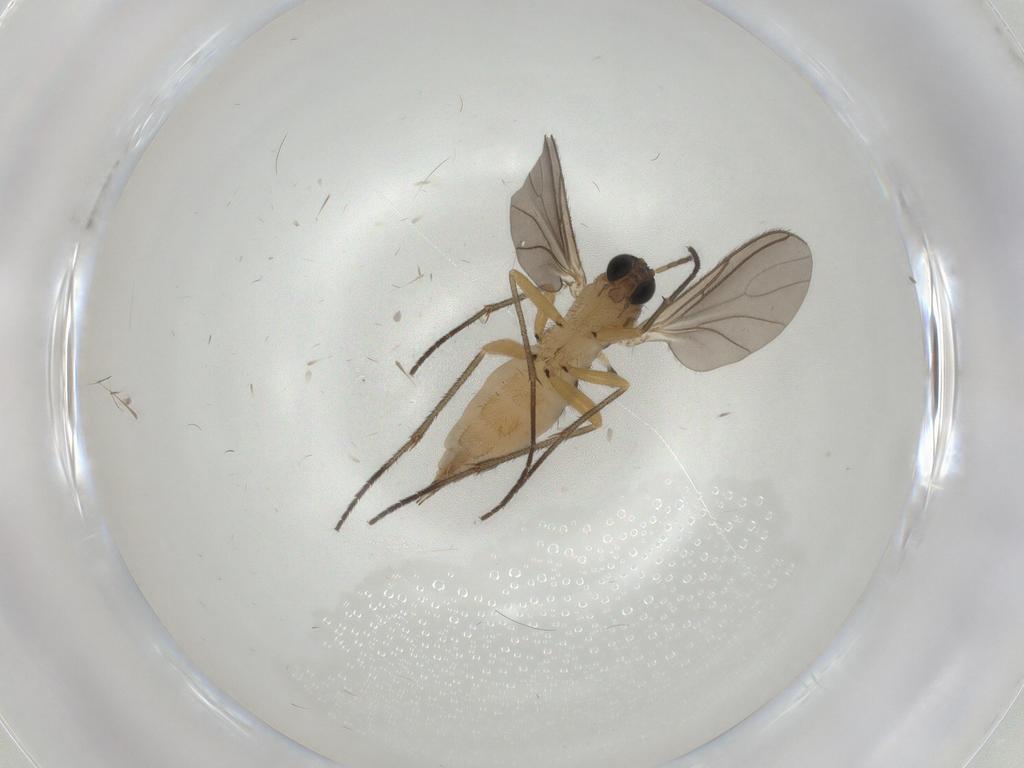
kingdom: Animalia
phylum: Arthropoda
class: Insecta
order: Diptera
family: Sciaridae
